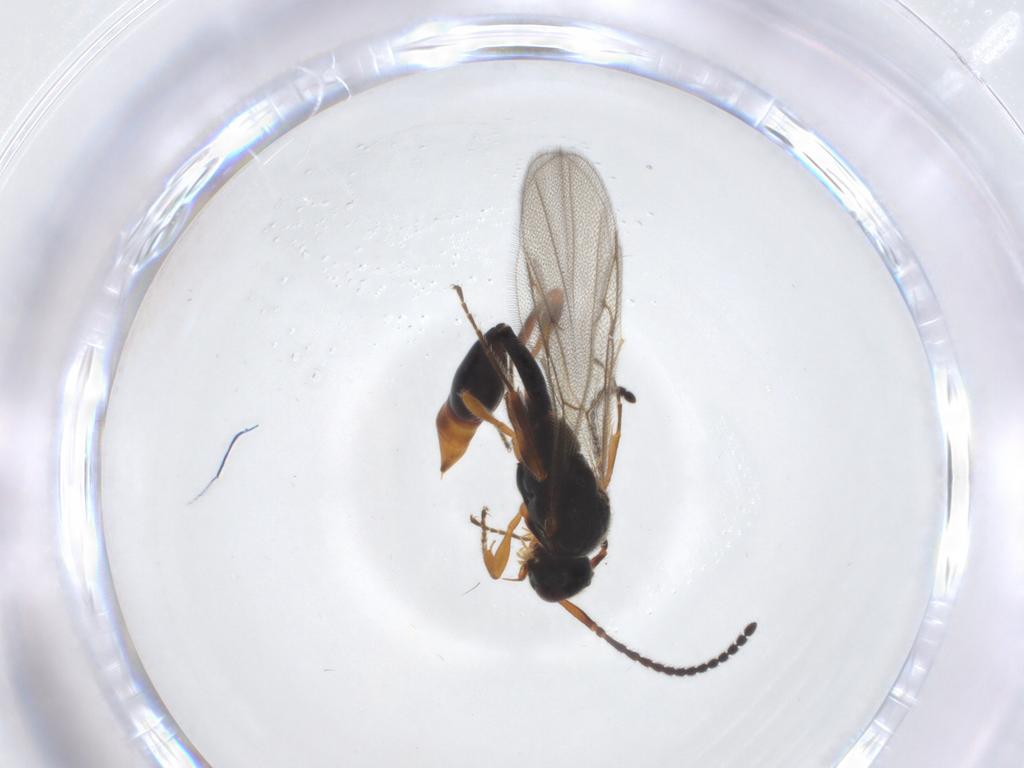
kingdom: Animalia
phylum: Arthropoda
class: Insecta
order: Hymenoptera
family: Diapriidae
